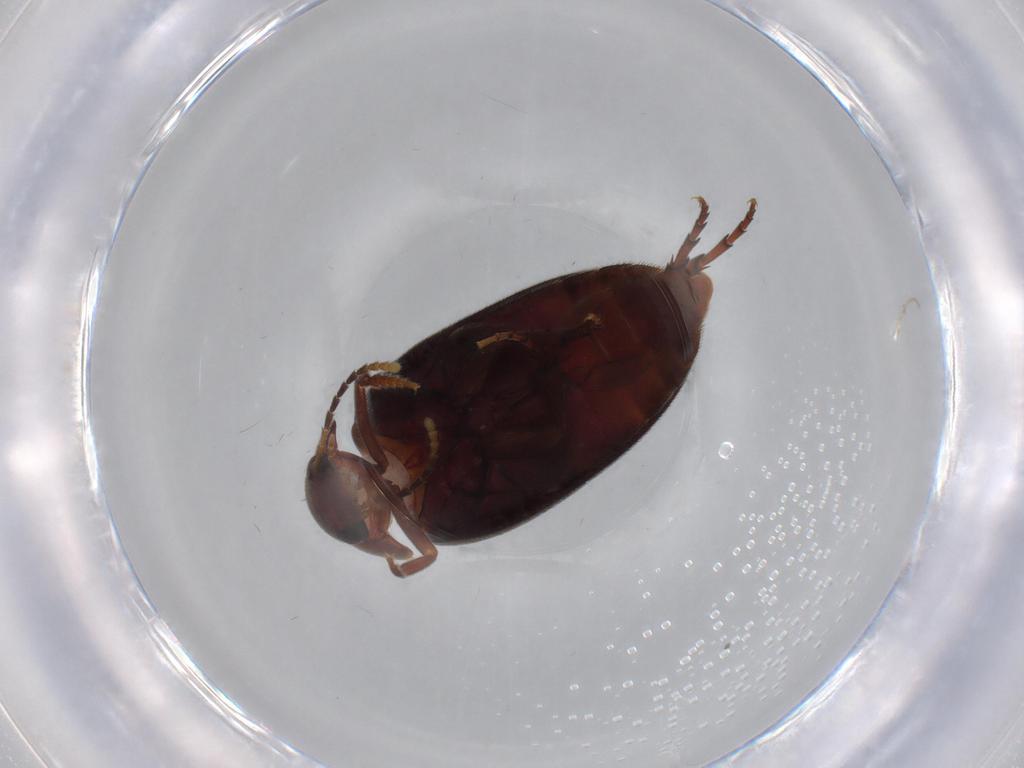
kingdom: Animalia
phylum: Arthropoda
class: Insecta
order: Coleoptera
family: Eucinetidae
